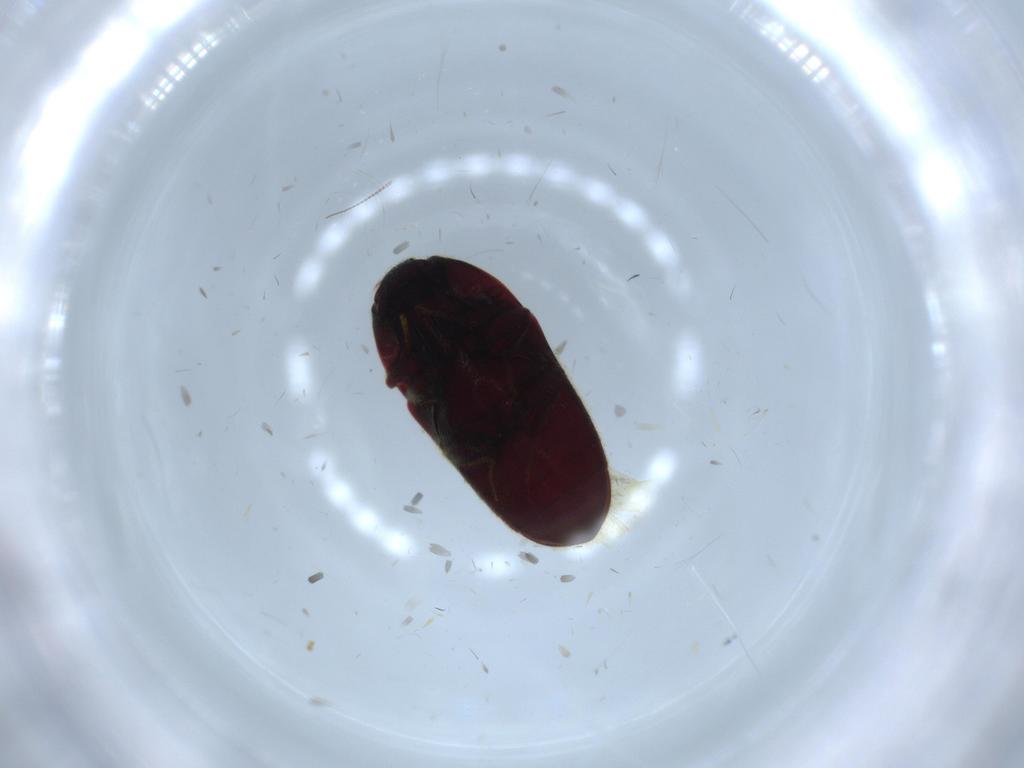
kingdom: Animalia
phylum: Arthropoda
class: Insecta
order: Coleoptera
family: Throscidae
